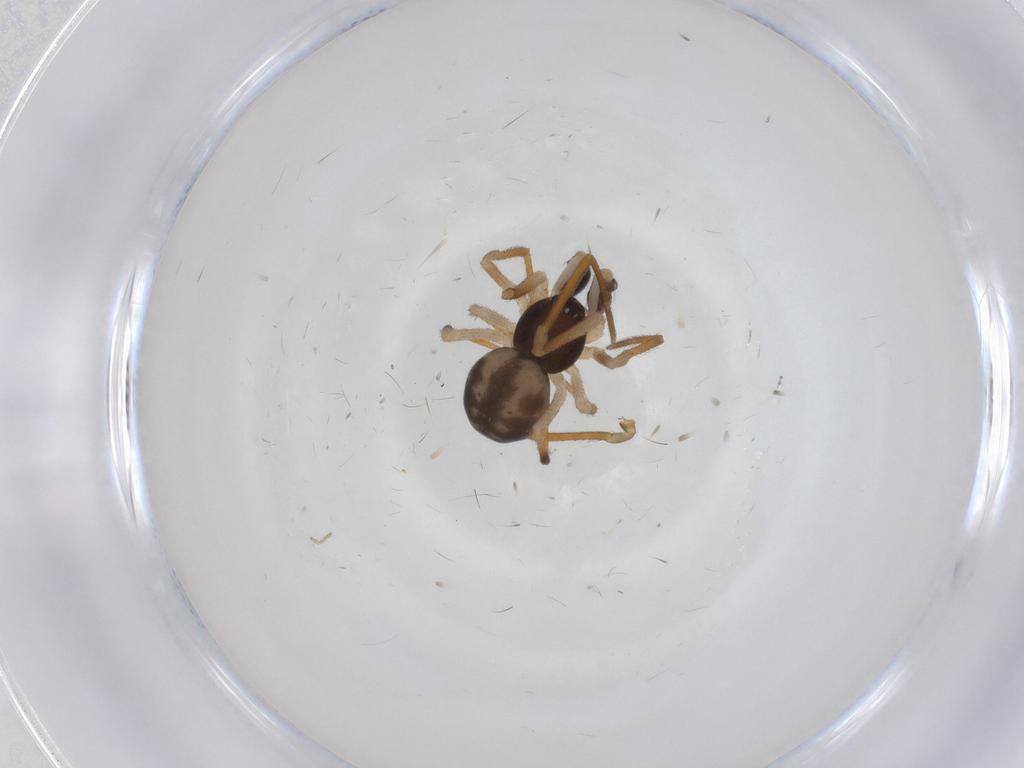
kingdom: Animalia
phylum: Arthropoda
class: Arachnida
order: Araneae
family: Theridiidae
